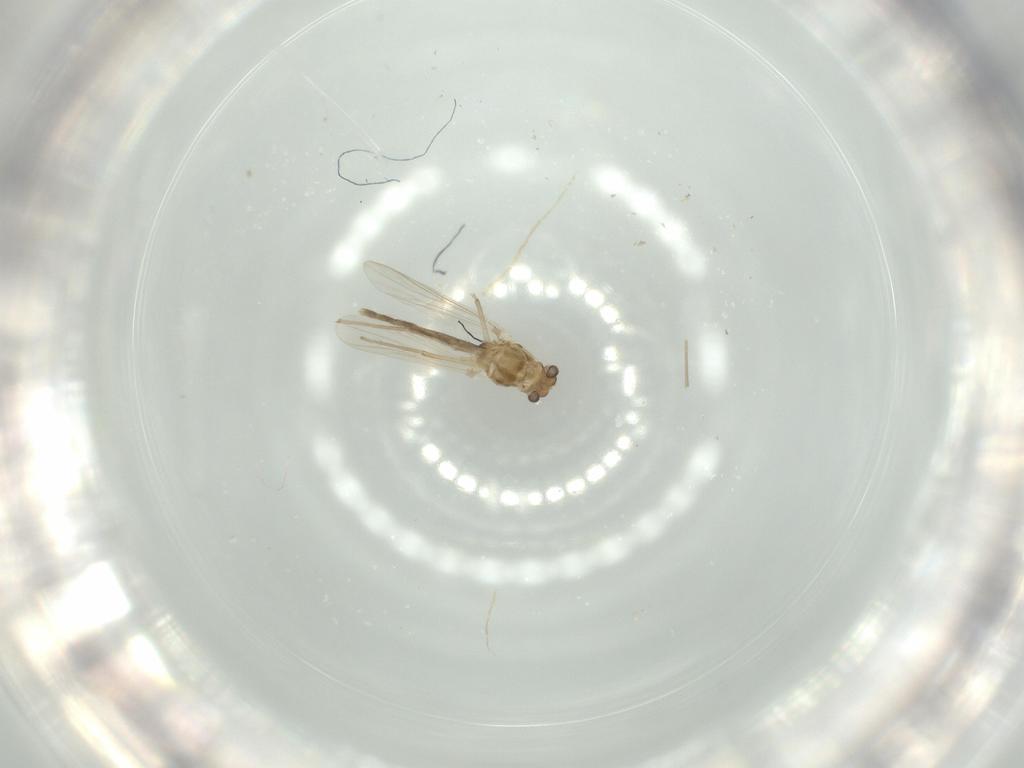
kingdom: Animalia
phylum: Arthropoda
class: Insecta
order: Diptera
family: Chironomidae
